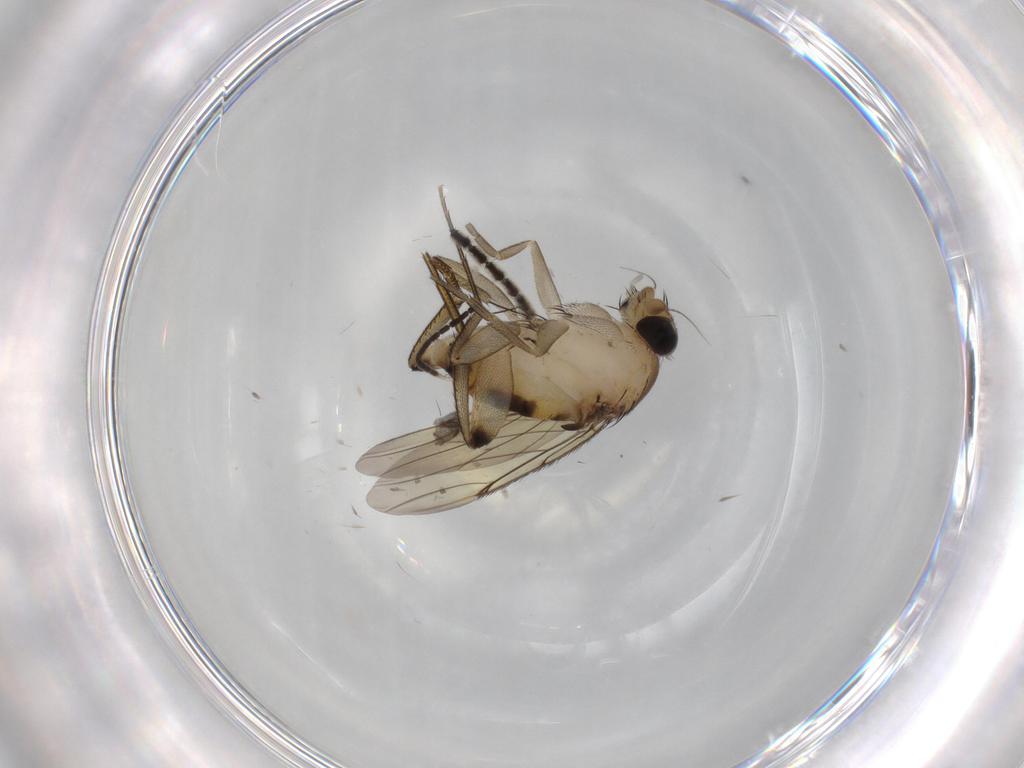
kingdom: Animalia
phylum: Arthropoda
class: Insecta
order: Diptera
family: Ceratopogonidae
